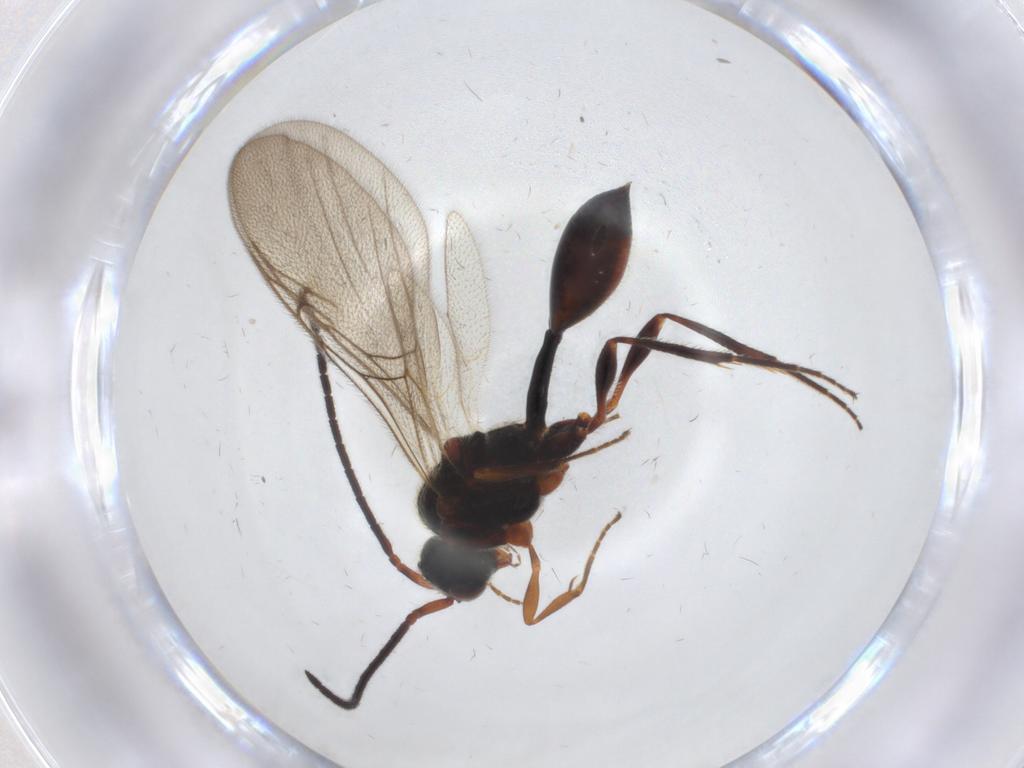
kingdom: Animalia
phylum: Arthropoda
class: Insecta
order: Hymenoptera
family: Diapriidae
